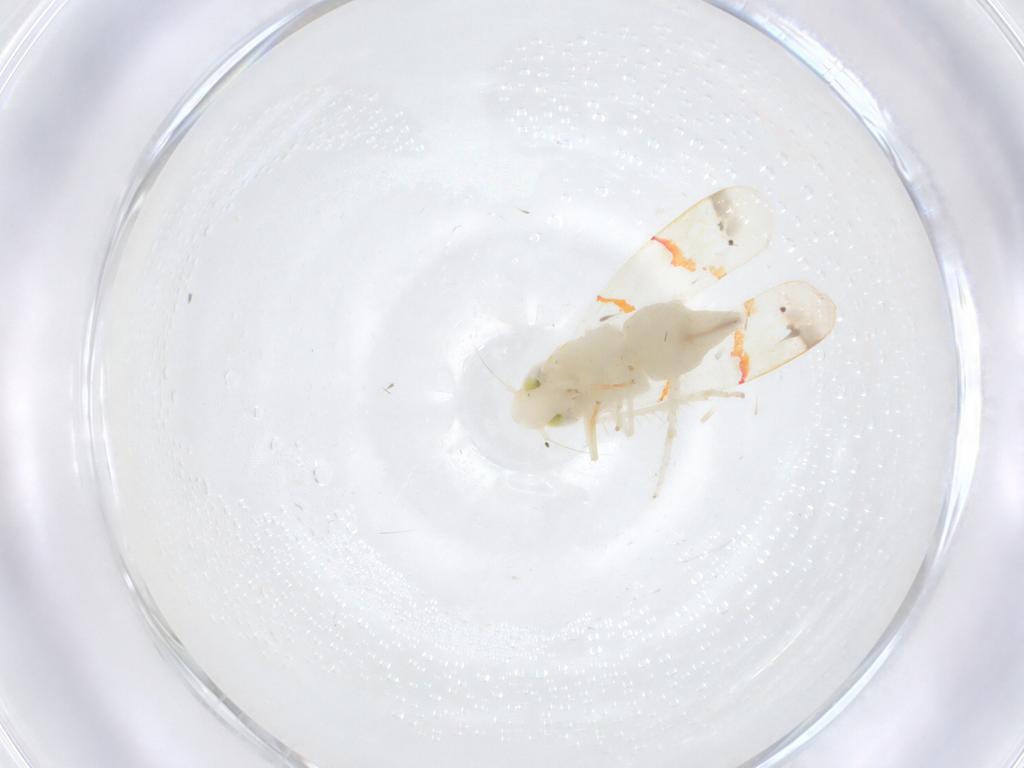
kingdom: Animalia
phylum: Arthropoda
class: Insecta
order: Hemiptera
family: Cicadellidae
